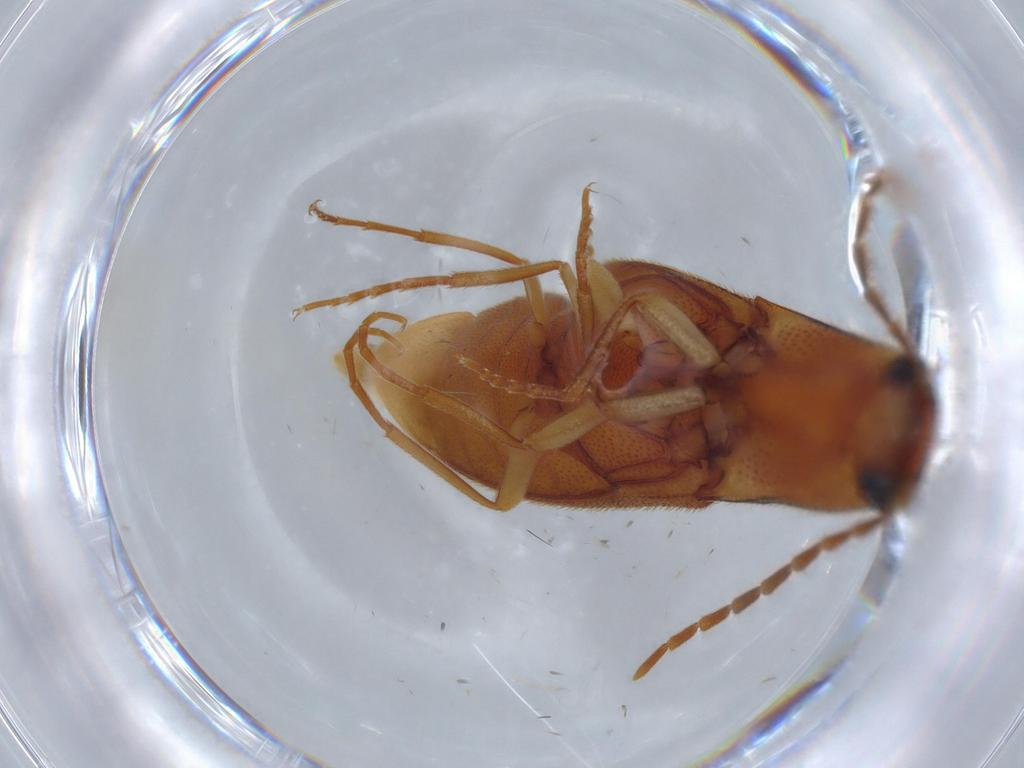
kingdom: Animalia
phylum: Arthropoda
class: Insecta
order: Coleoptera
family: Elateridae
